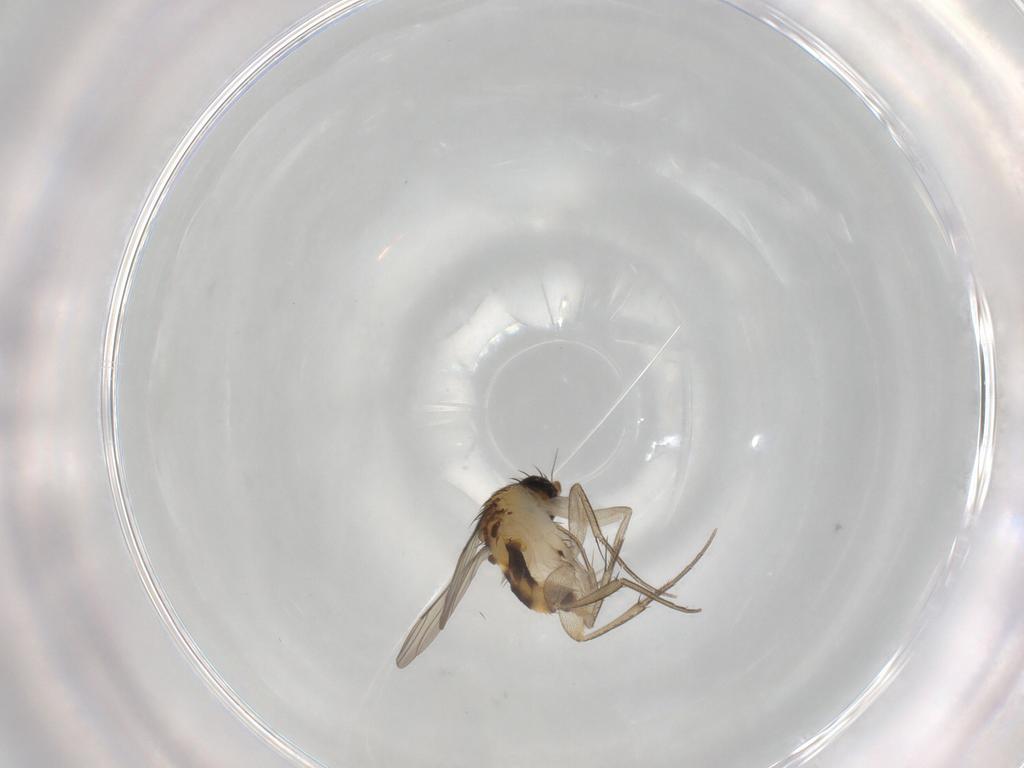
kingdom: Animalia
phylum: Arthropoda
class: Insecta
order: Diptera
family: Phoridae
